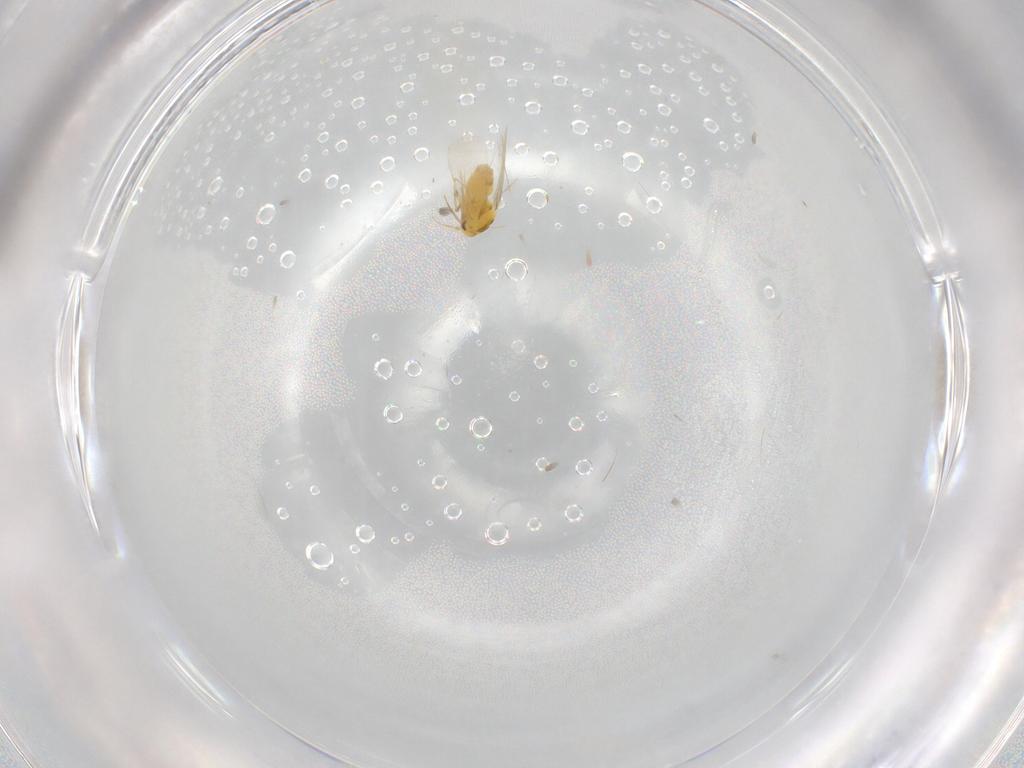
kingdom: Animalia
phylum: Arthropoda
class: Insecta
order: Hemiptera
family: Aleyrodidae
